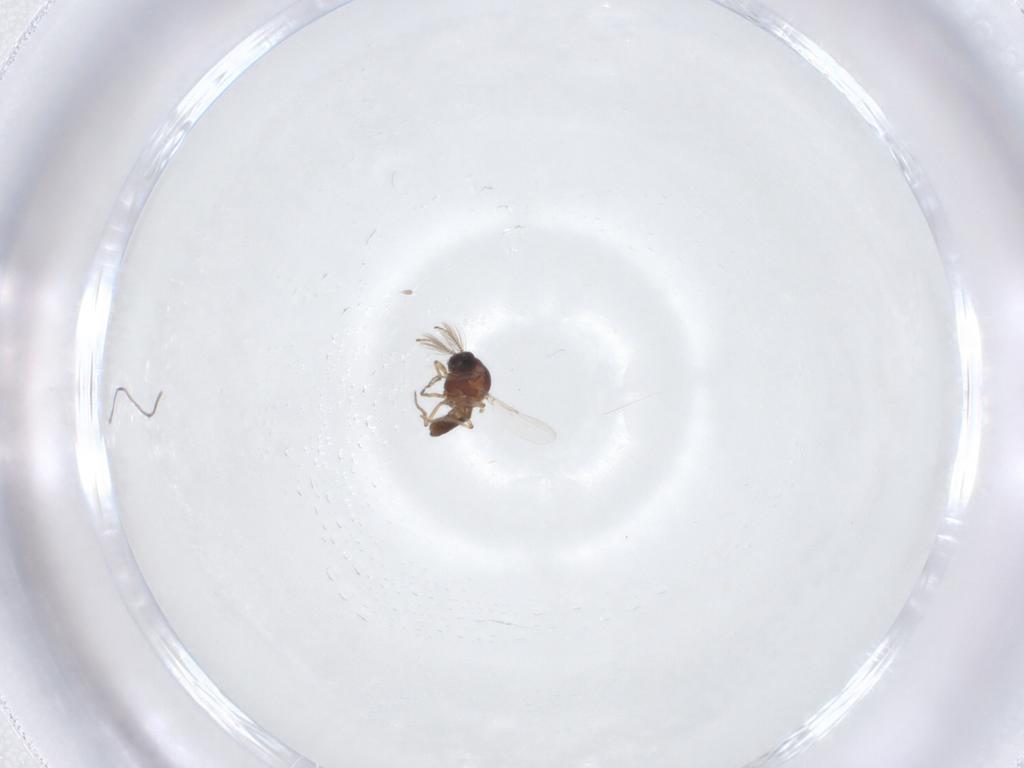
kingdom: Animalia
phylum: Arthropoda
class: Insecta
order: Diptera
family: Ceratopogonidae
